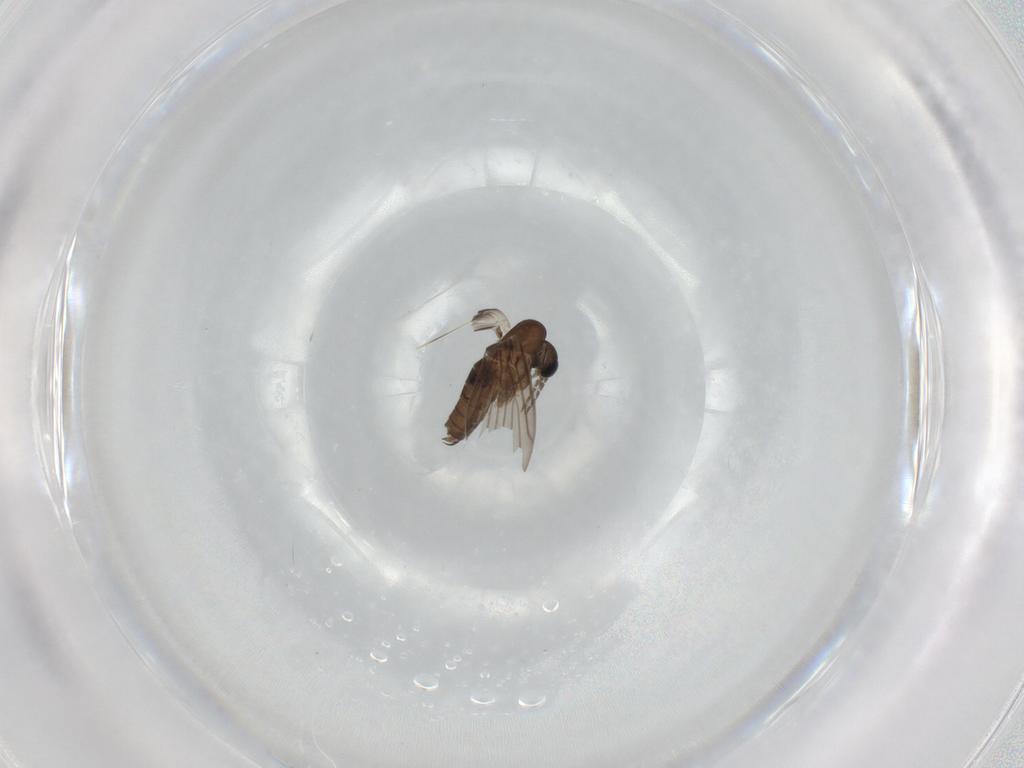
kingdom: Animalia
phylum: Arthropoda
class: Insecta
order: Diptera
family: Psychodidae
